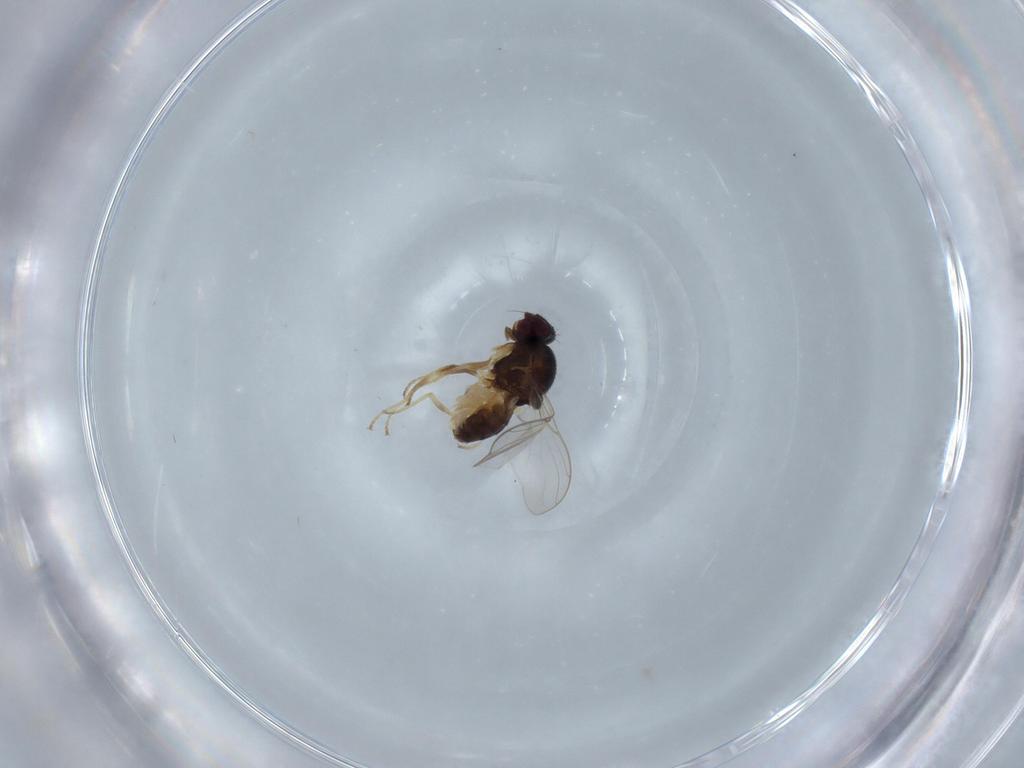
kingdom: Animalia
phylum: Arthropoda
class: Insecta
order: Diptera
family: Chloropidae
